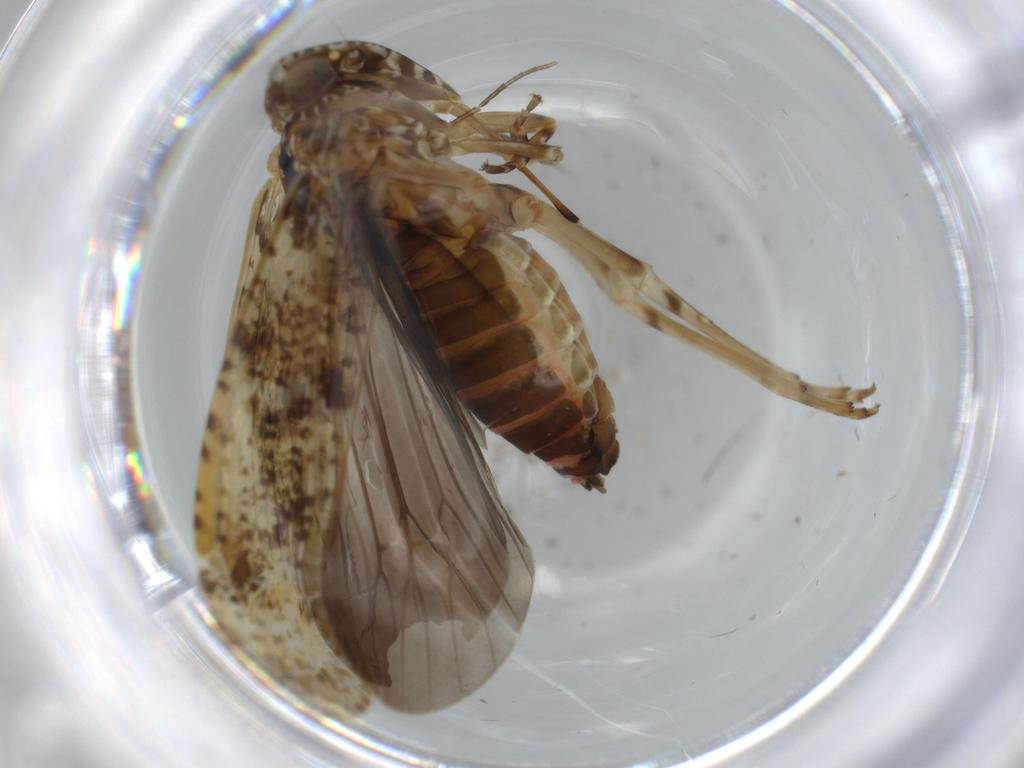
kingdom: Animalia
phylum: Arthropoda
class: Insecta
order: Hemiptera
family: Achilidae
